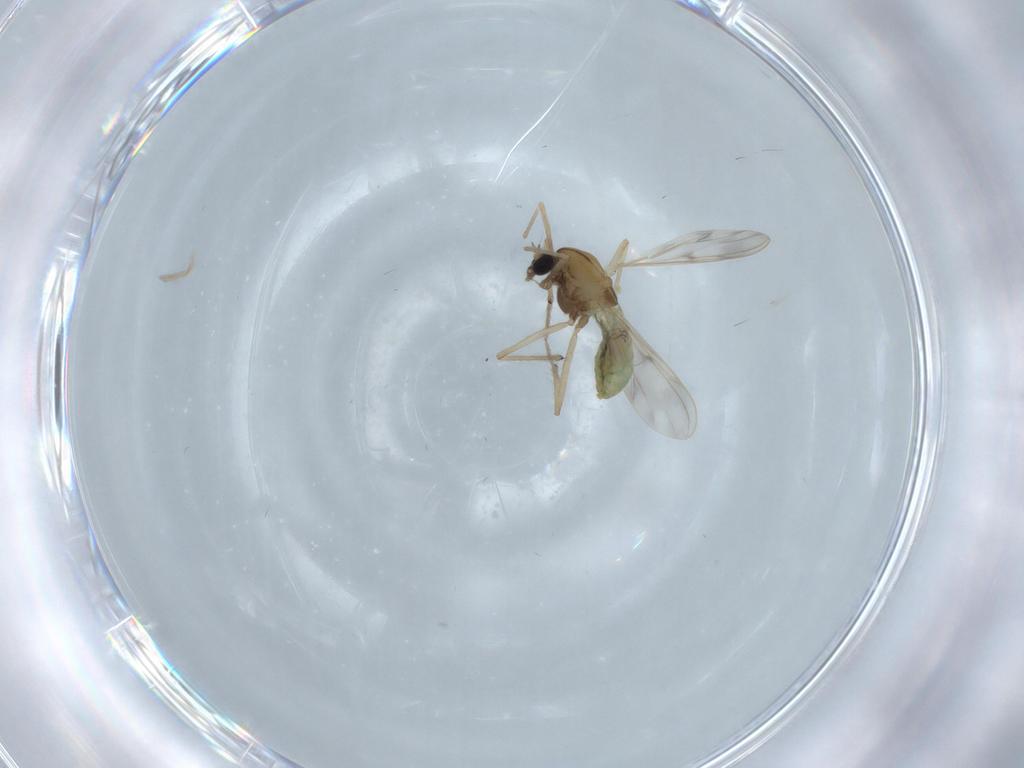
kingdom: Animalia
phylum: Arthropoda
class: Insecta
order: Diptera
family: Chironomidae
